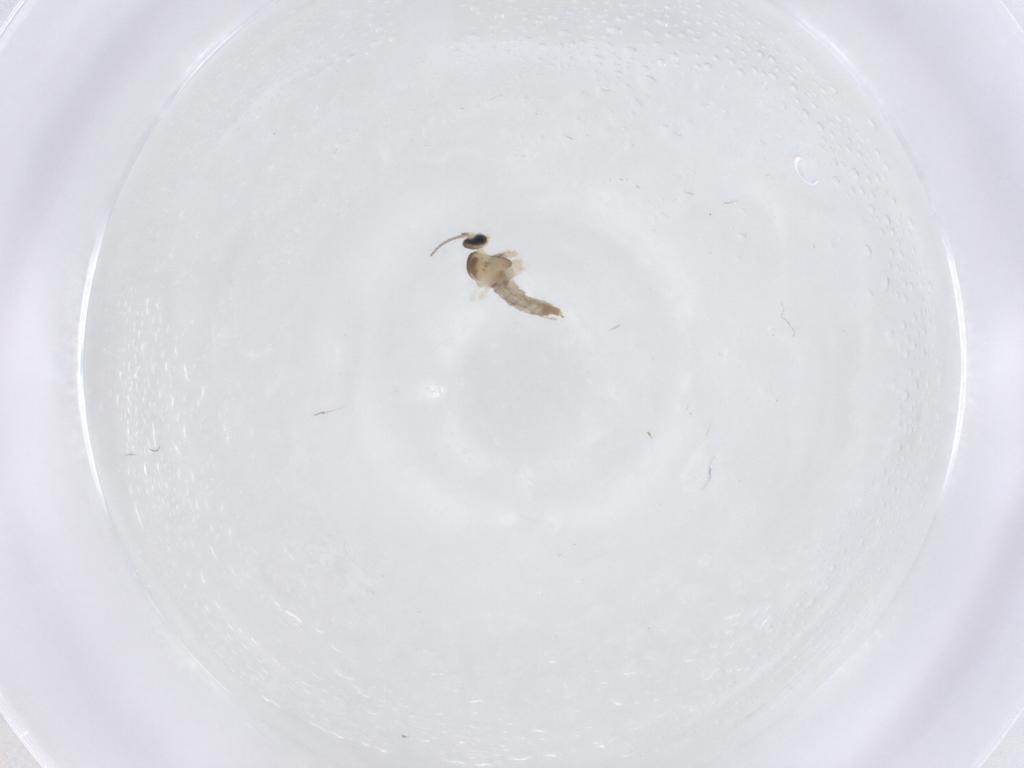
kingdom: Animalia
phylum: Arthropoda
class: Insecta
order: Diptera
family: Cecidomyiidae
